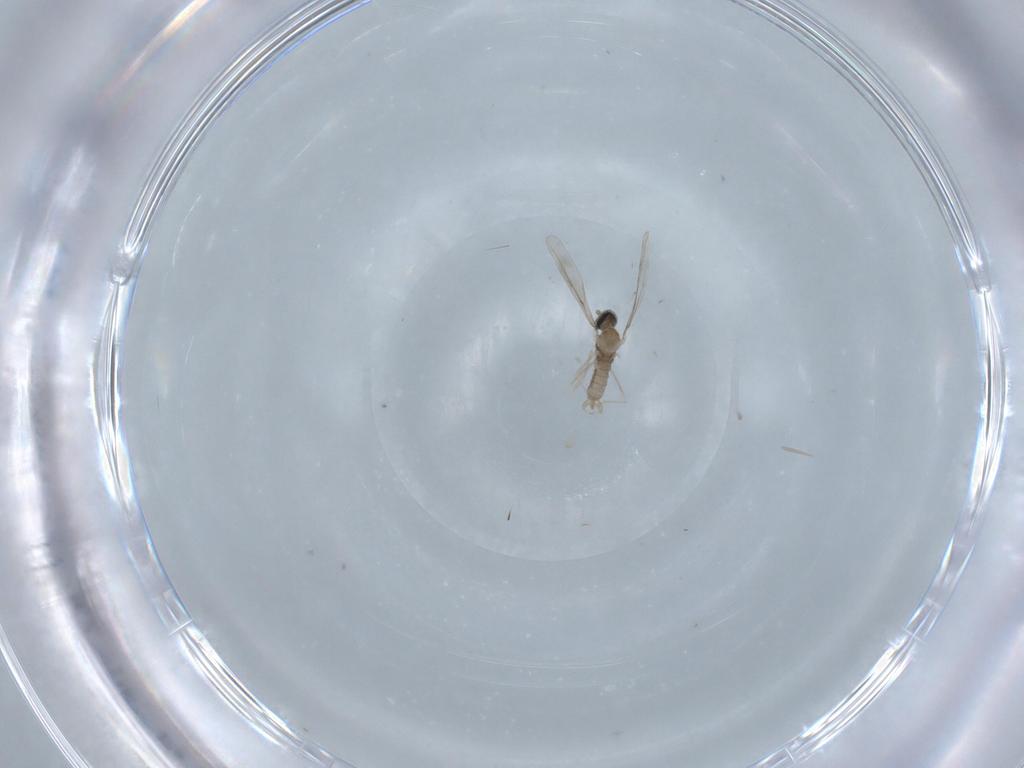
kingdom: Animalia
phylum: Arthropoda
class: Insecta
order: Diptera
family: Cecidomyiidae
